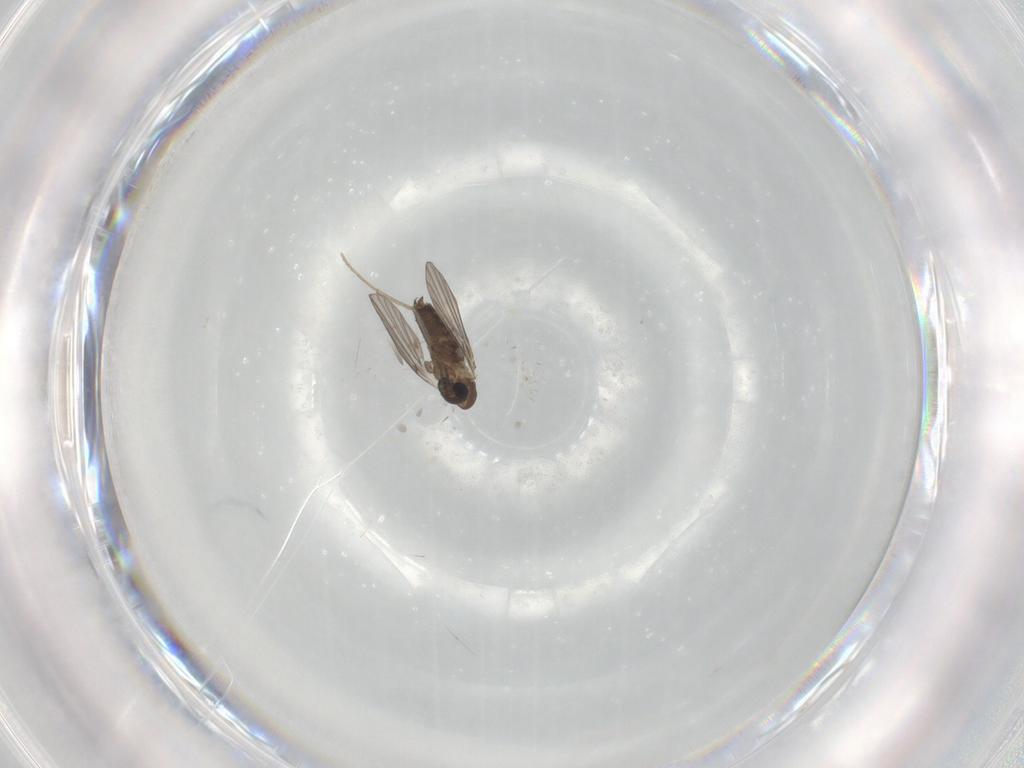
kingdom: Animalia
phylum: Arthropoda
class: Insecta
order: Diptera
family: Ceratopogonidae
